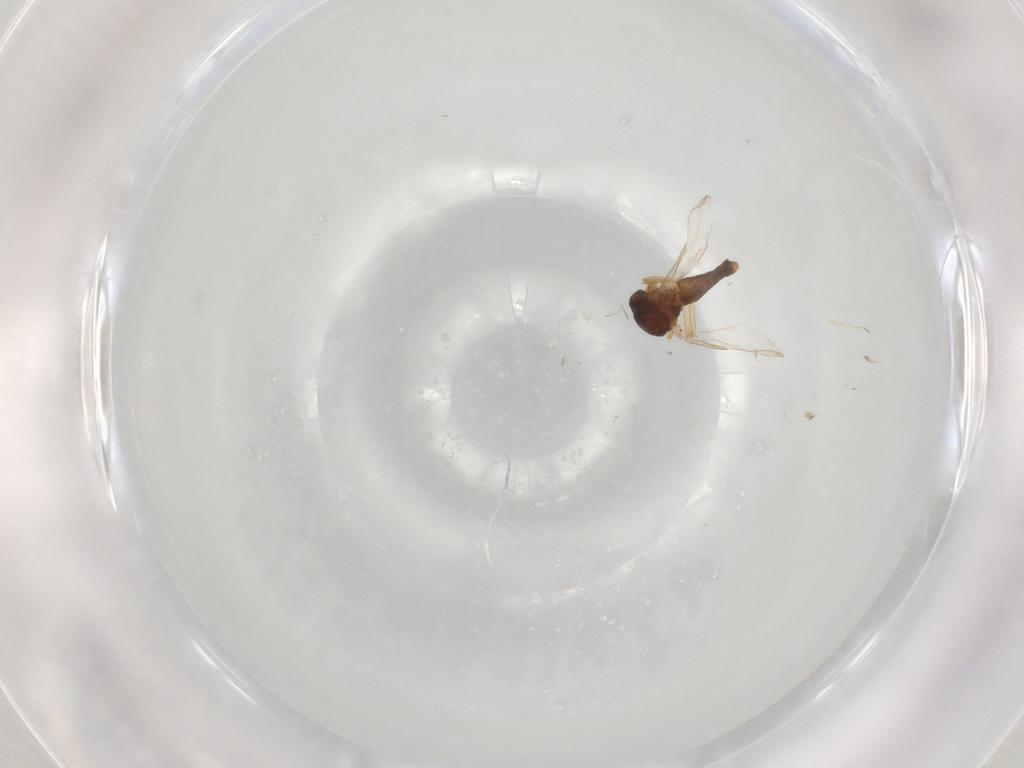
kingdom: Animalia
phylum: Arthropoda
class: Insecta
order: Diptera
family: Ceratopogonidae
